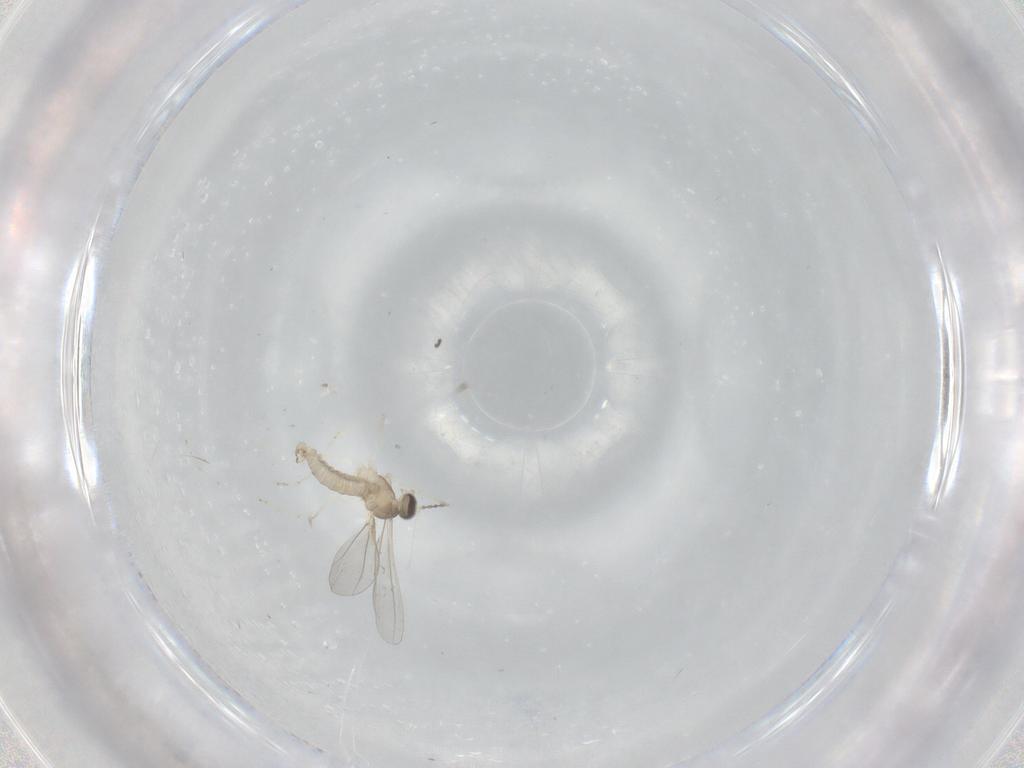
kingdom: Animalia
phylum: Arthropoda
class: Insecta
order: Diptera
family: Cecidomyiidae
